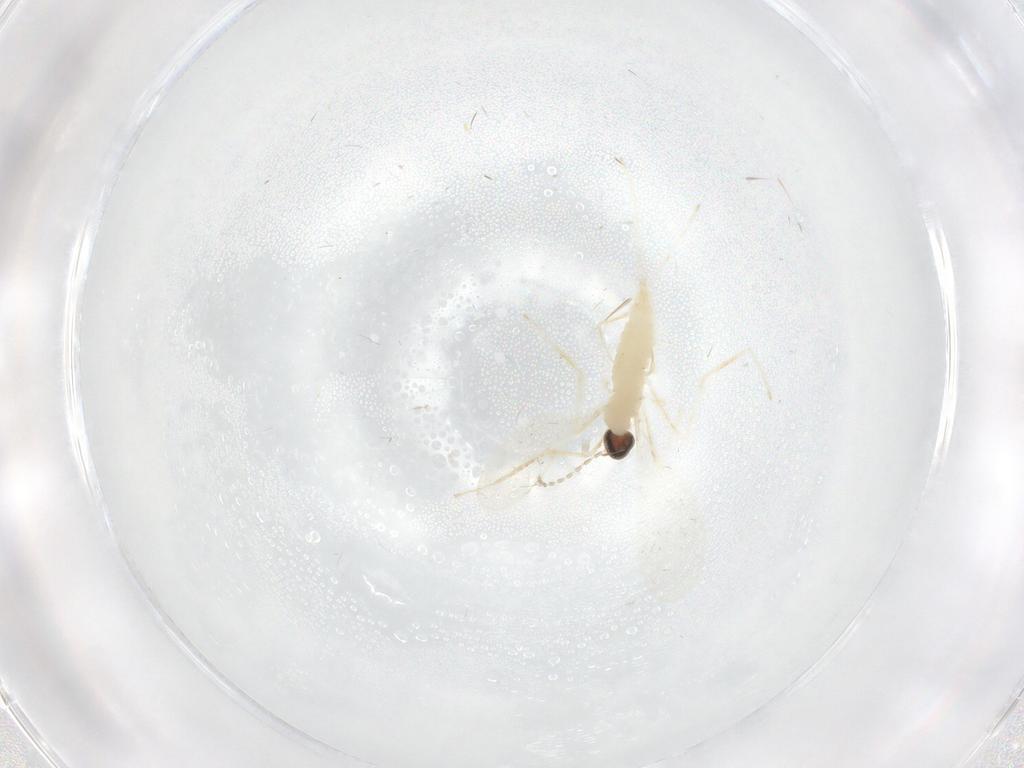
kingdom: Animalia
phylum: Arthropoda
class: Insecta
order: Diptera
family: Cecidomyiidae
